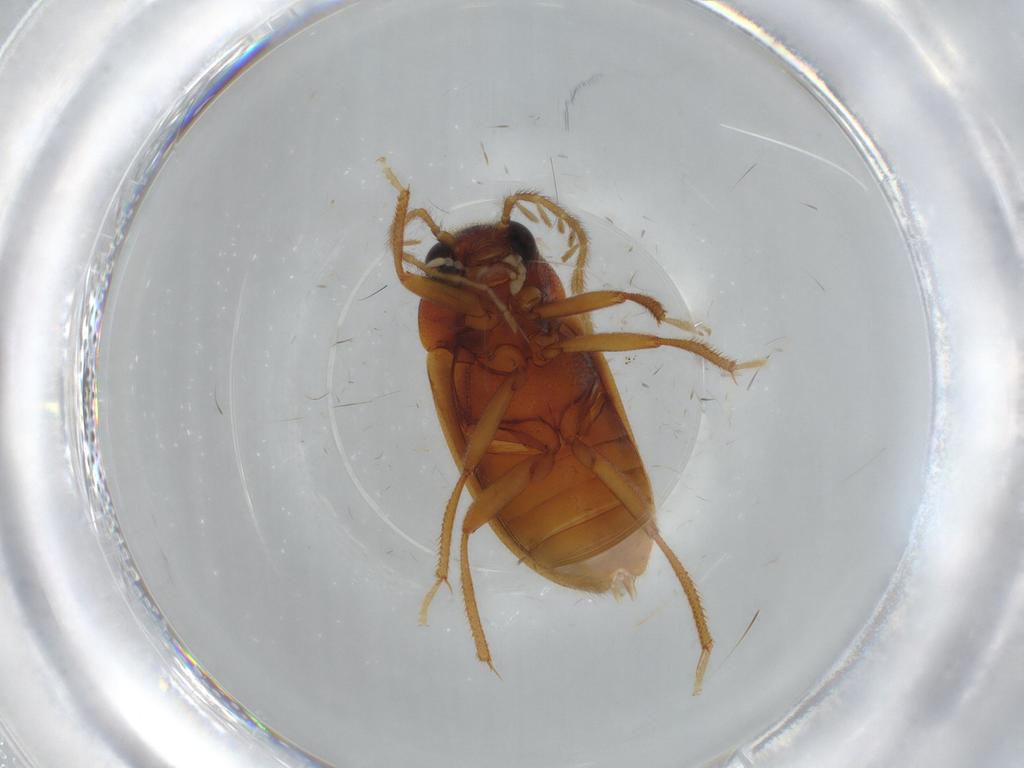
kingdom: Animalia
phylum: Arthropoda
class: Insecta
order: Coleoptera
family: Ptilodactylidae
